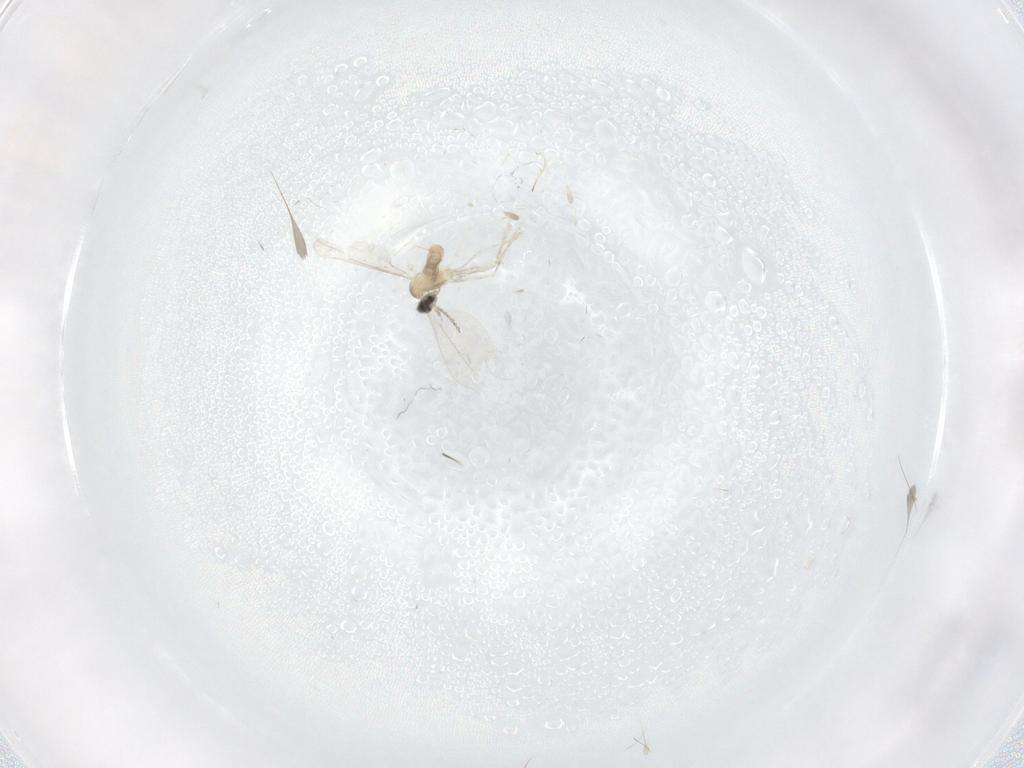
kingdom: Animalia
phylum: Arthropoda
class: Insecta
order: Diptera
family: Cecidomyiidae
